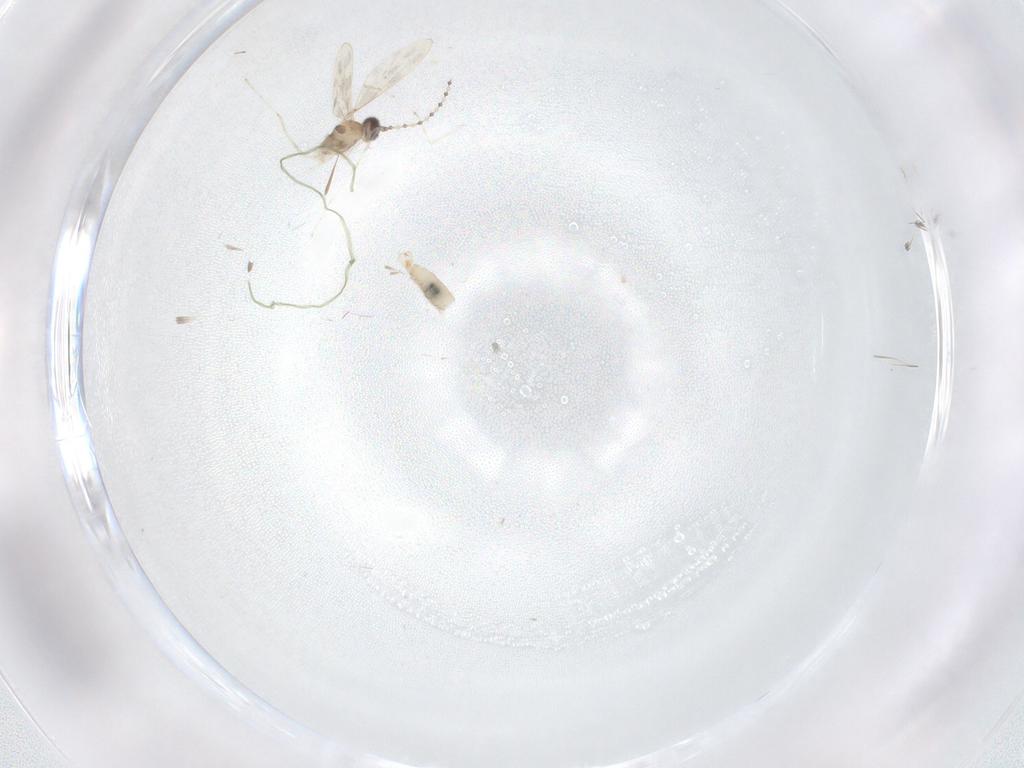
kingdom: Animalia
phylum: Arthropoda
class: Insecta
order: Diptera
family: Cecidomyiidae
